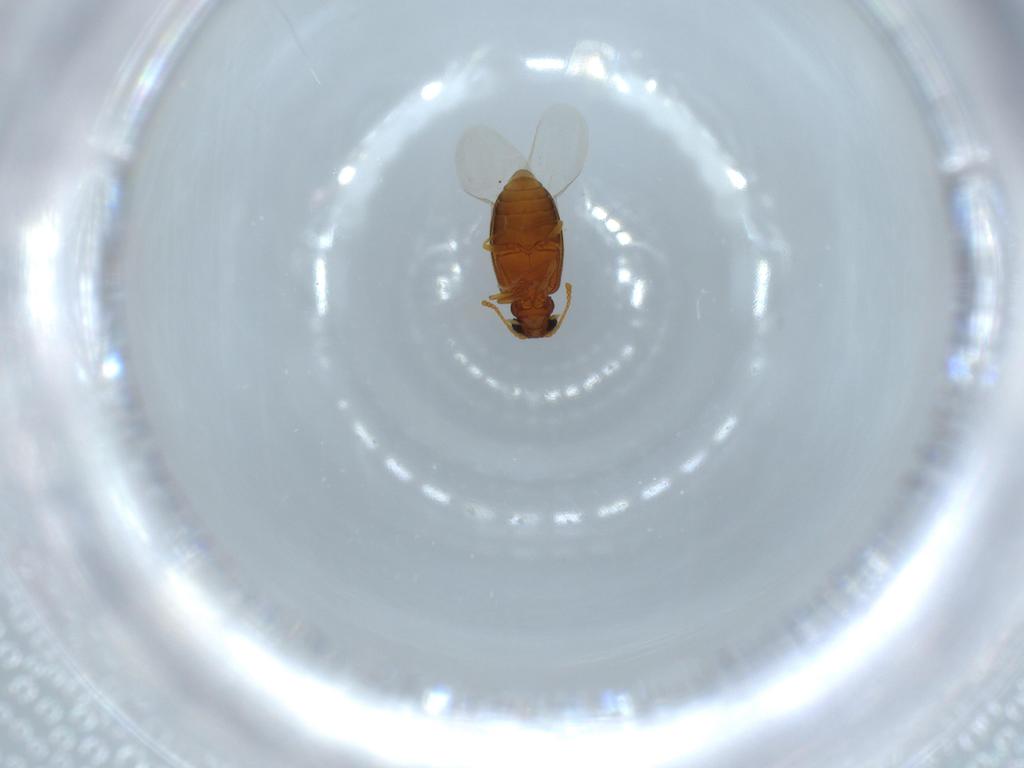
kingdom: Animalia
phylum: Arthropoda
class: Insecta
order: Coleoptera
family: Aderidae
